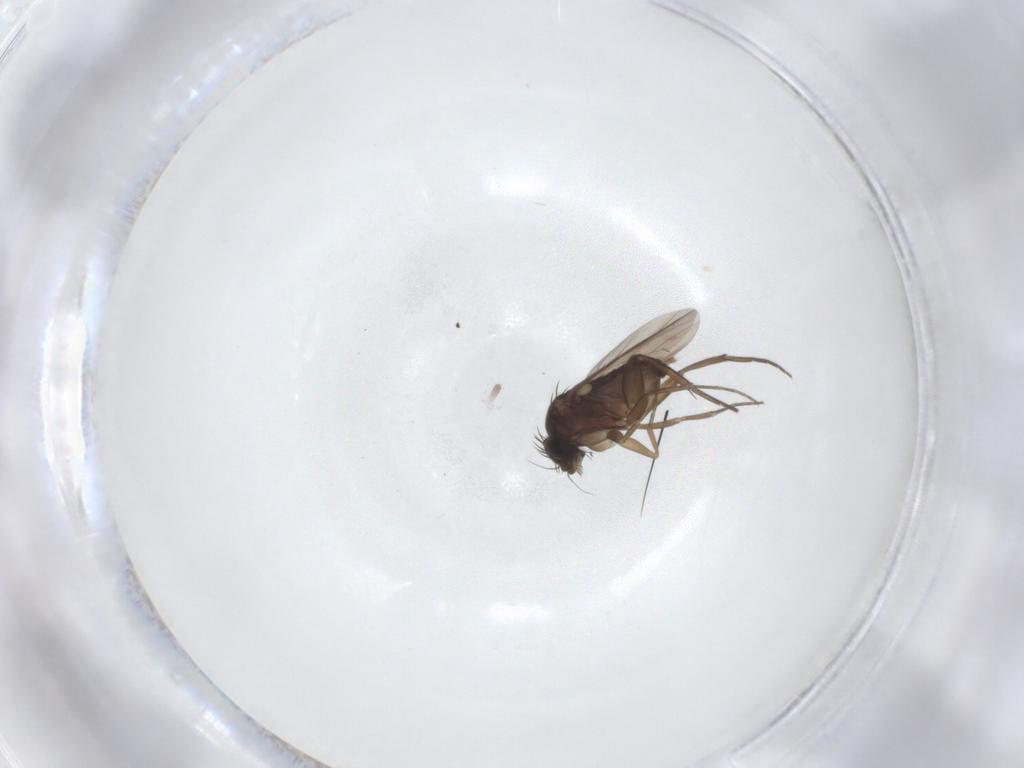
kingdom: Animalia
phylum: Arthropoda
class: Insecta
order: Diptera
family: Phoridae
